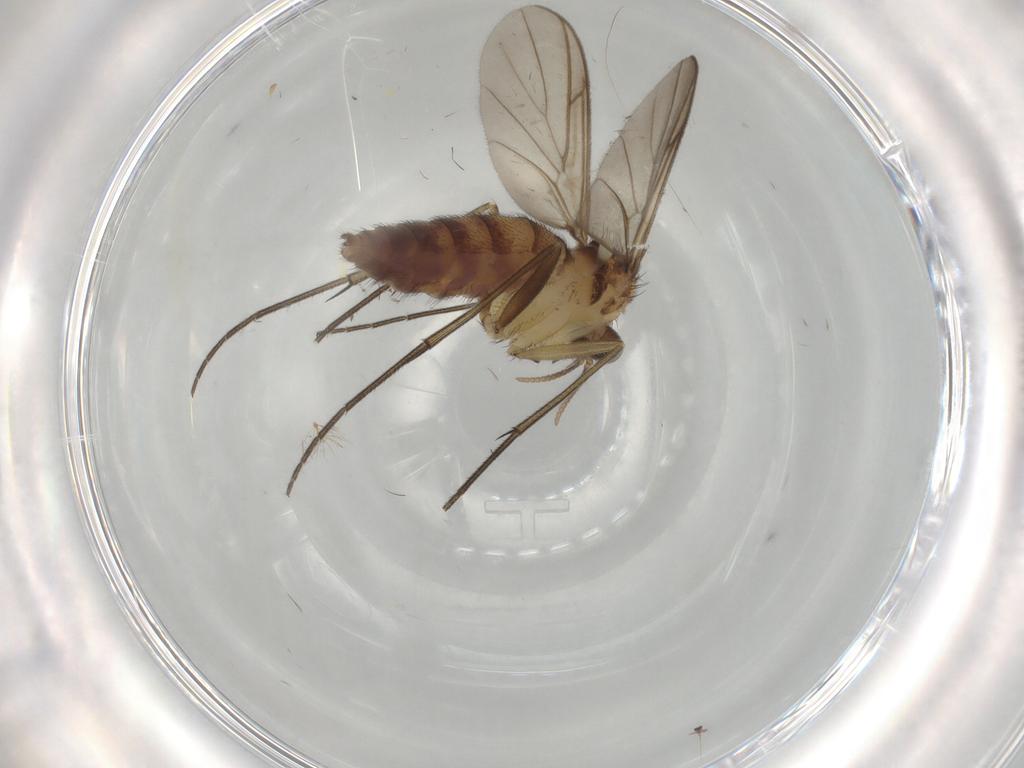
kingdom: Animalia
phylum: Arthropoda
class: Insecta
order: Diptera
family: Keroplatidae
